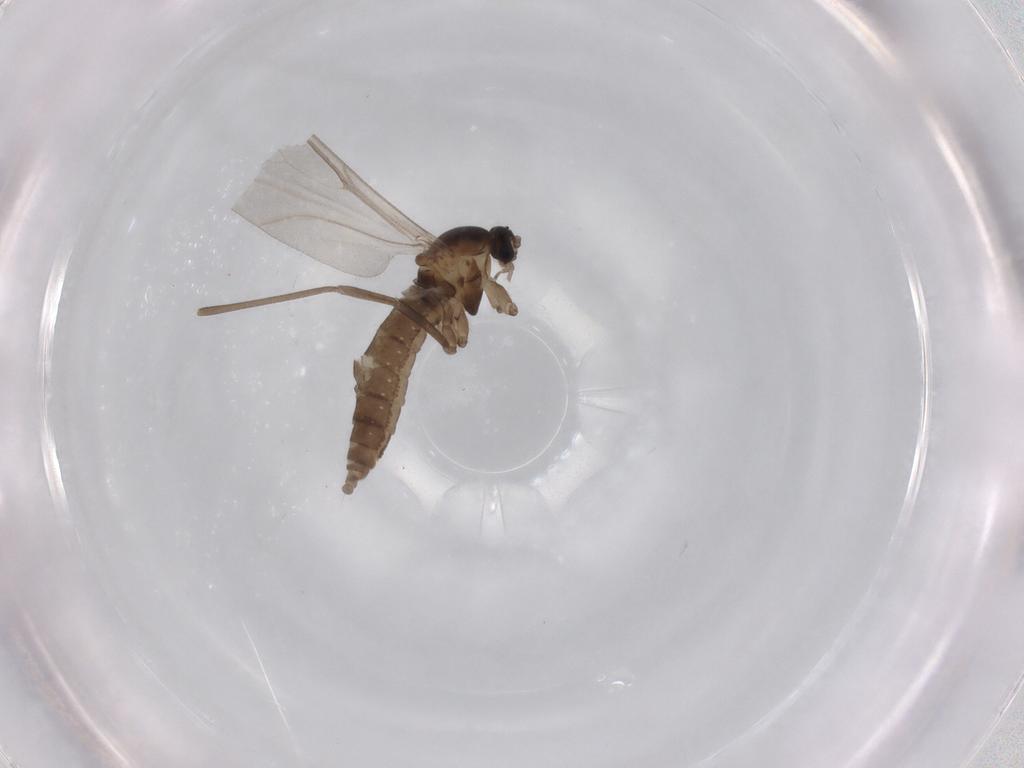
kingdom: Animalia
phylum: Arthropoda
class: Insecta
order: Diptera
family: Cecidomyiidae
